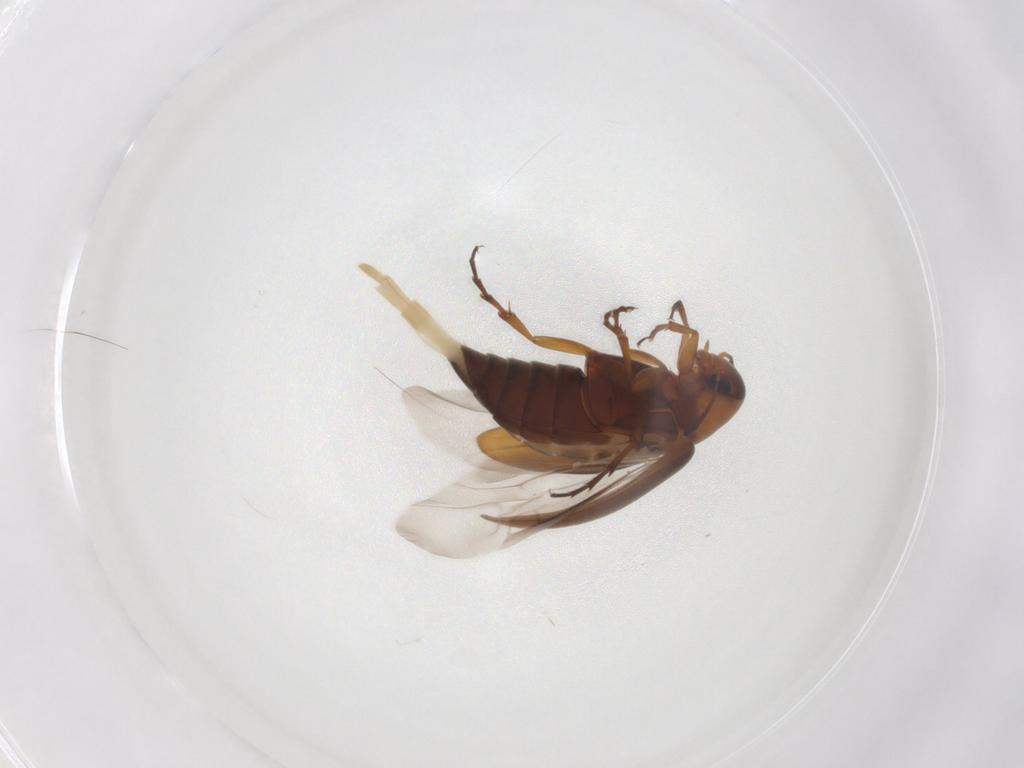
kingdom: Animalia
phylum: Arthropoda
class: Insecta
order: Coleoptera
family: Scraptiidae
